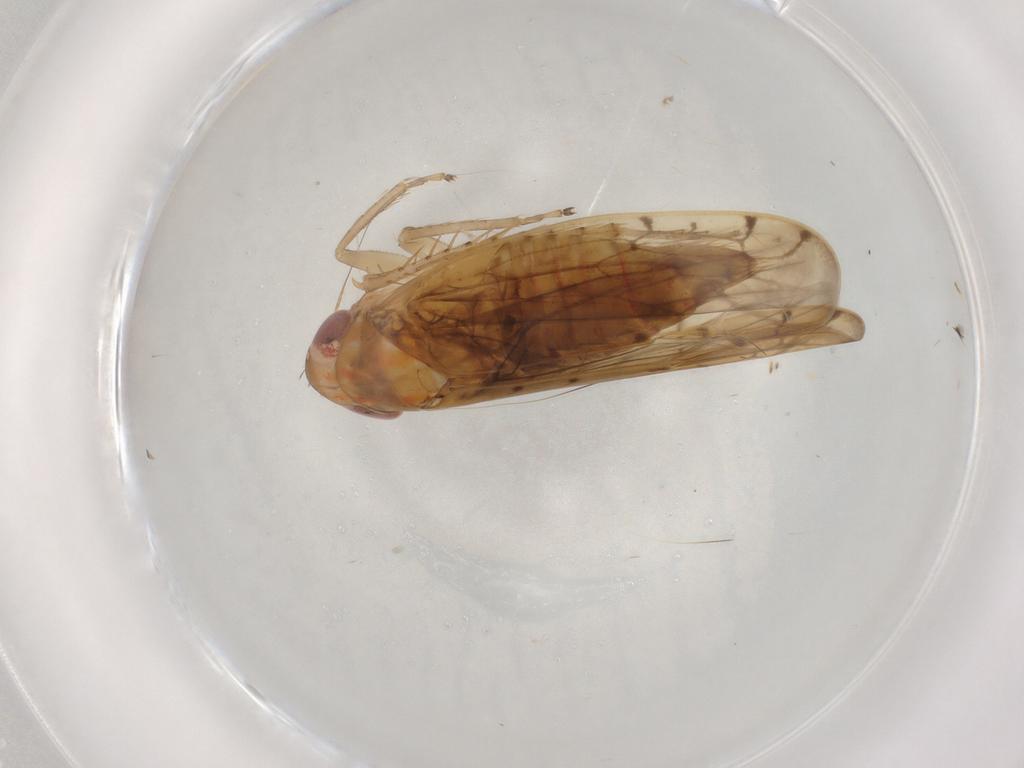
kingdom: Animalia
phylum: Arthropoda
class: Insecta
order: Hemiptera
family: Cicadellidae
